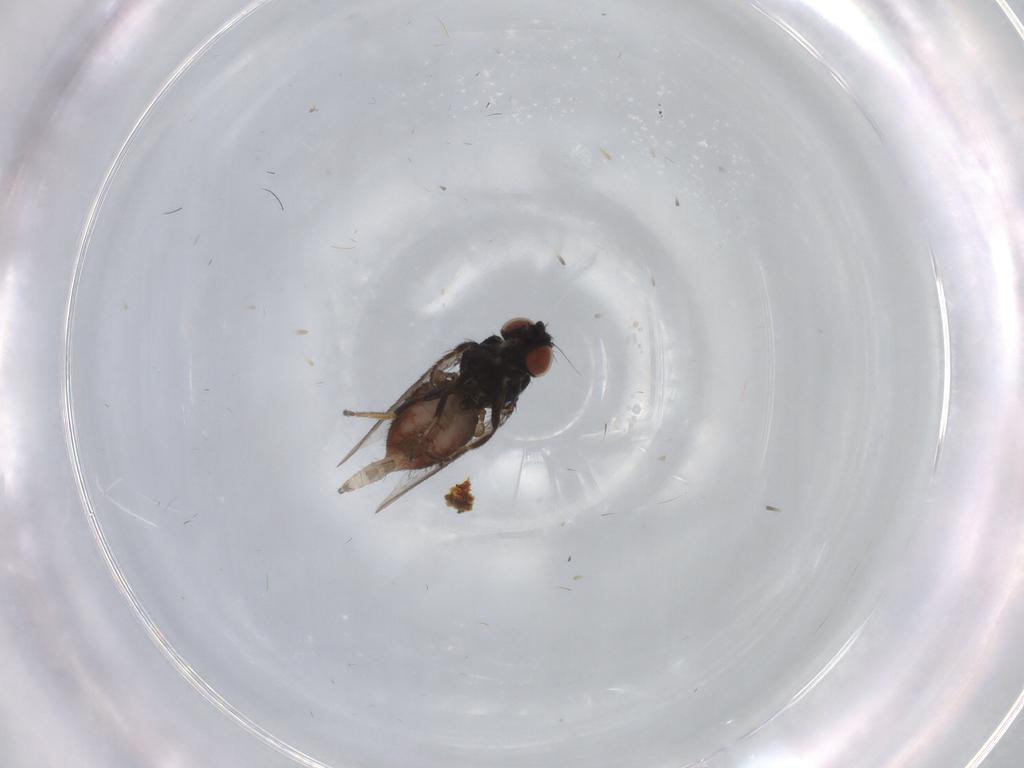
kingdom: Animalia
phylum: Arthropoda
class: Insecta
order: Diptera
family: Milichiidae
